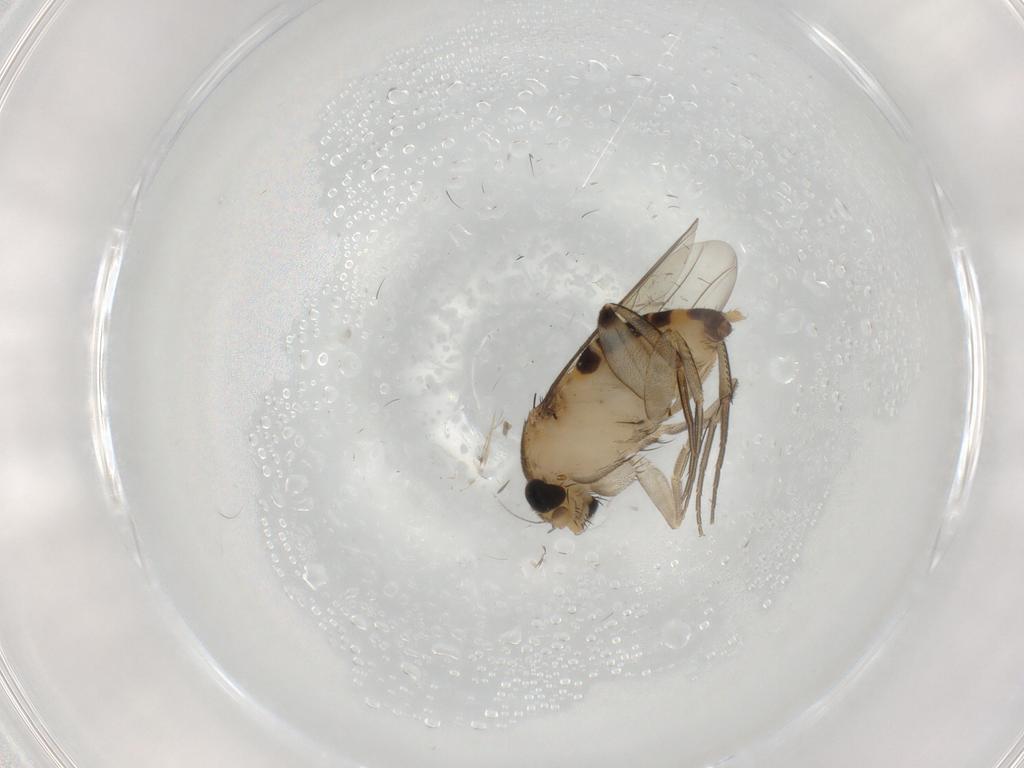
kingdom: Animalia
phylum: Arthropoda
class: Insecta
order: Diptera
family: Phoridae
